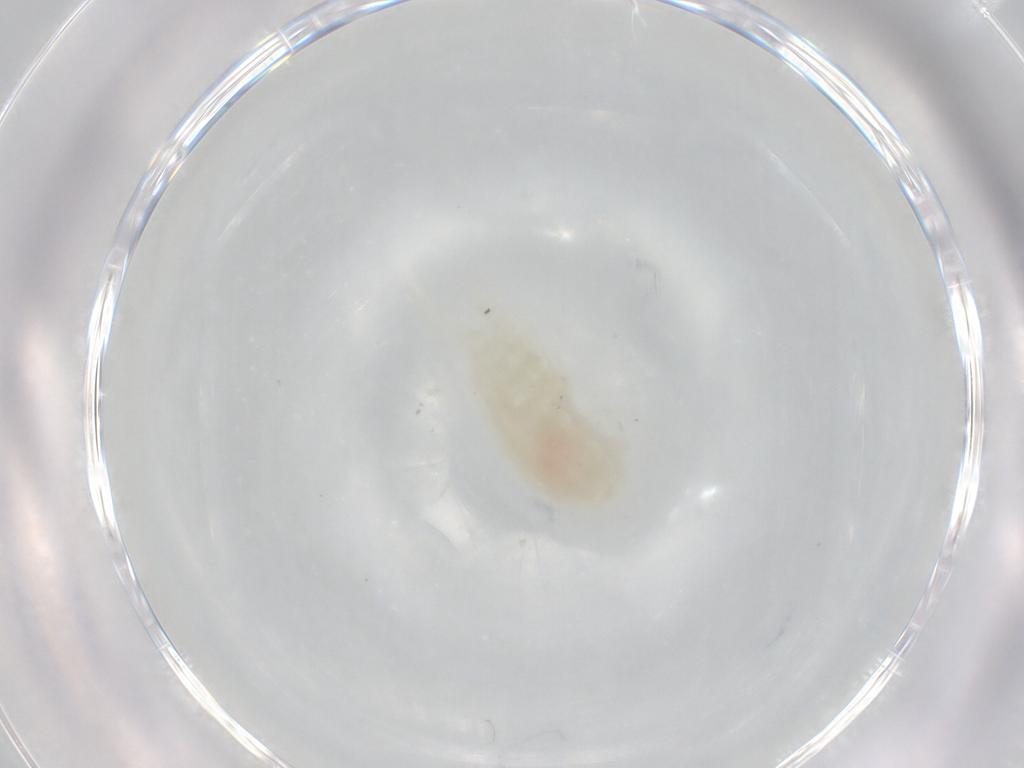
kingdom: Animalia
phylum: Arthropoda
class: Copepoda
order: Calanoida
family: Diaptomidae
